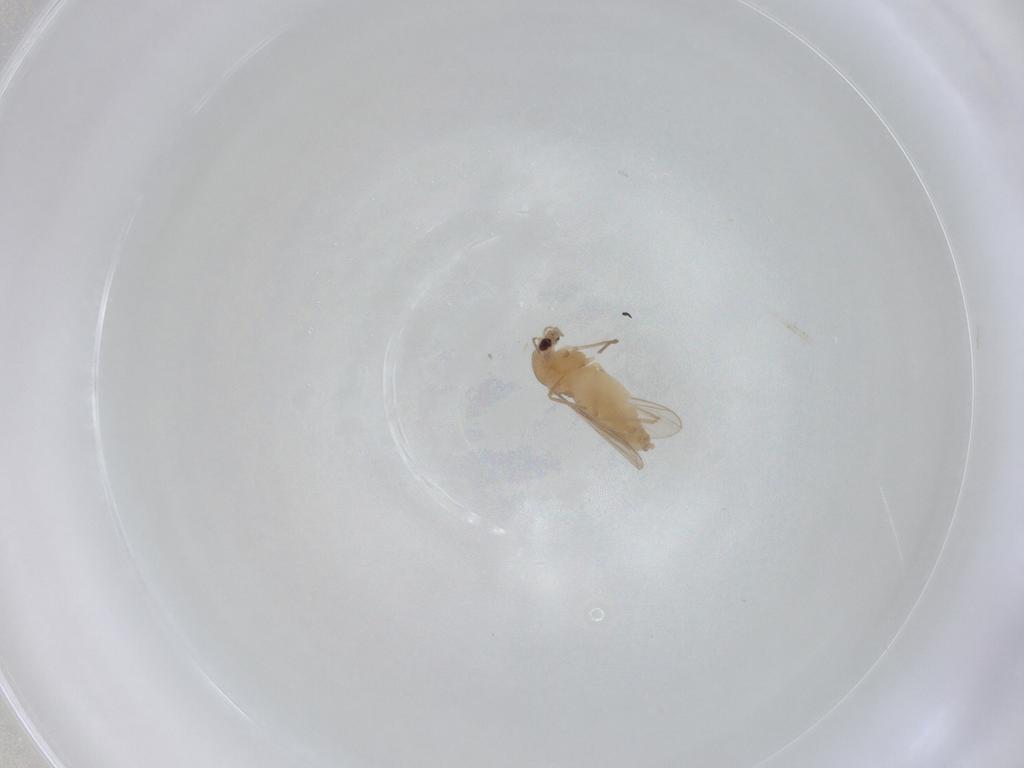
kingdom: Animalia
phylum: Arthropoda
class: Insecta
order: Diptera
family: Chironomidae
